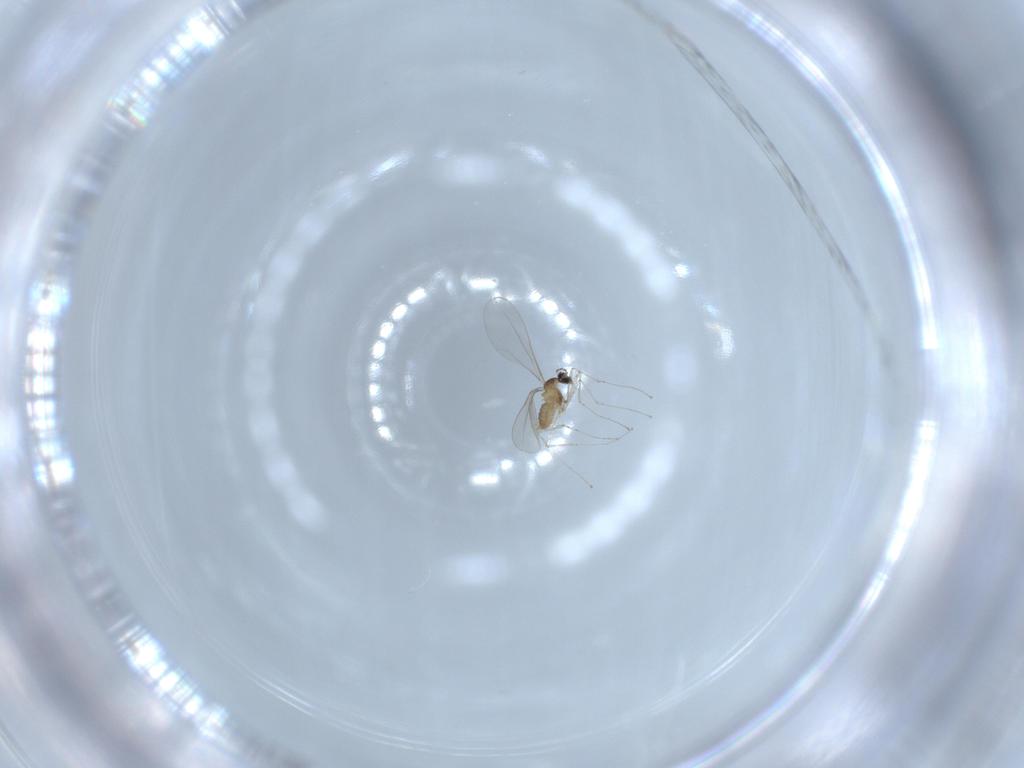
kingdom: Animalia
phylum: Arthropoda
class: Insecta
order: Diptera
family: Cecidomyiidae
